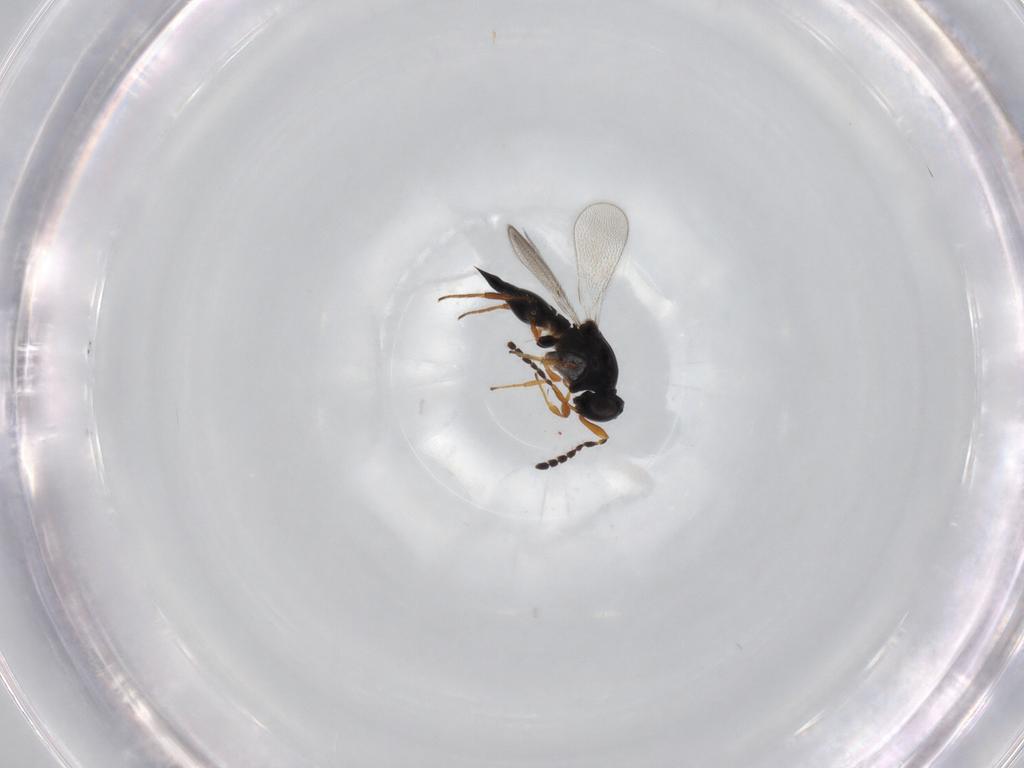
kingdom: Animalia
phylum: Arthropoda
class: Insecta
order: Hymenoptera
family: Platygastridae
